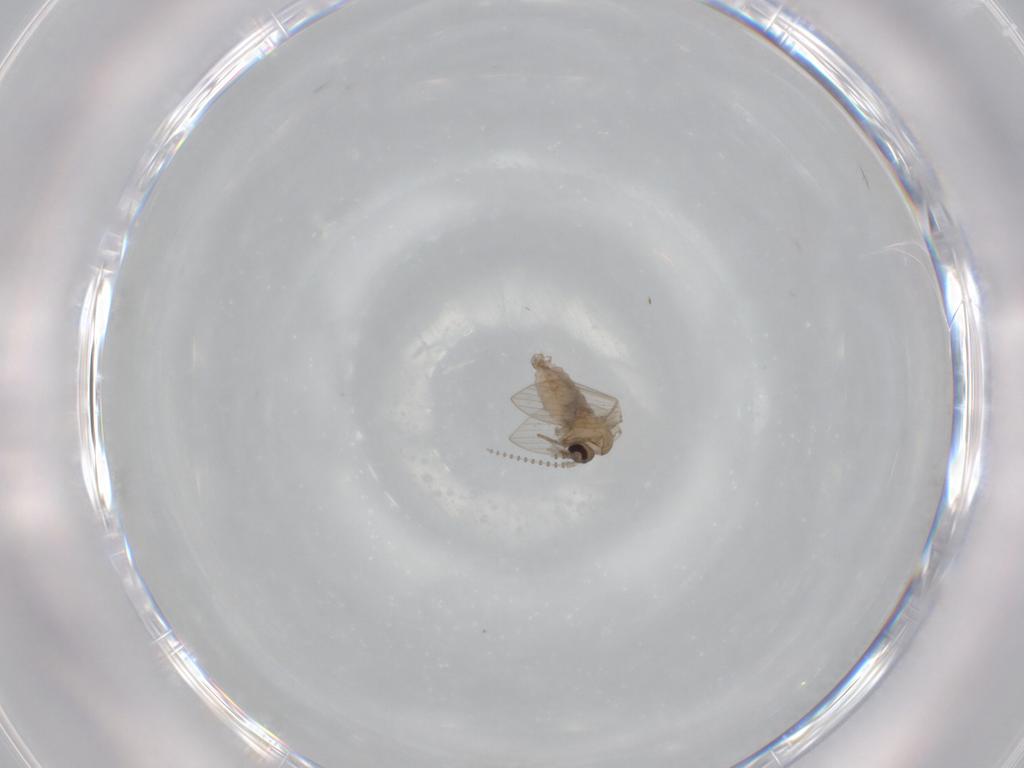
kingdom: Animalia
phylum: Arthropoda
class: Insecta
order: Diptera
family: Psychodidae
